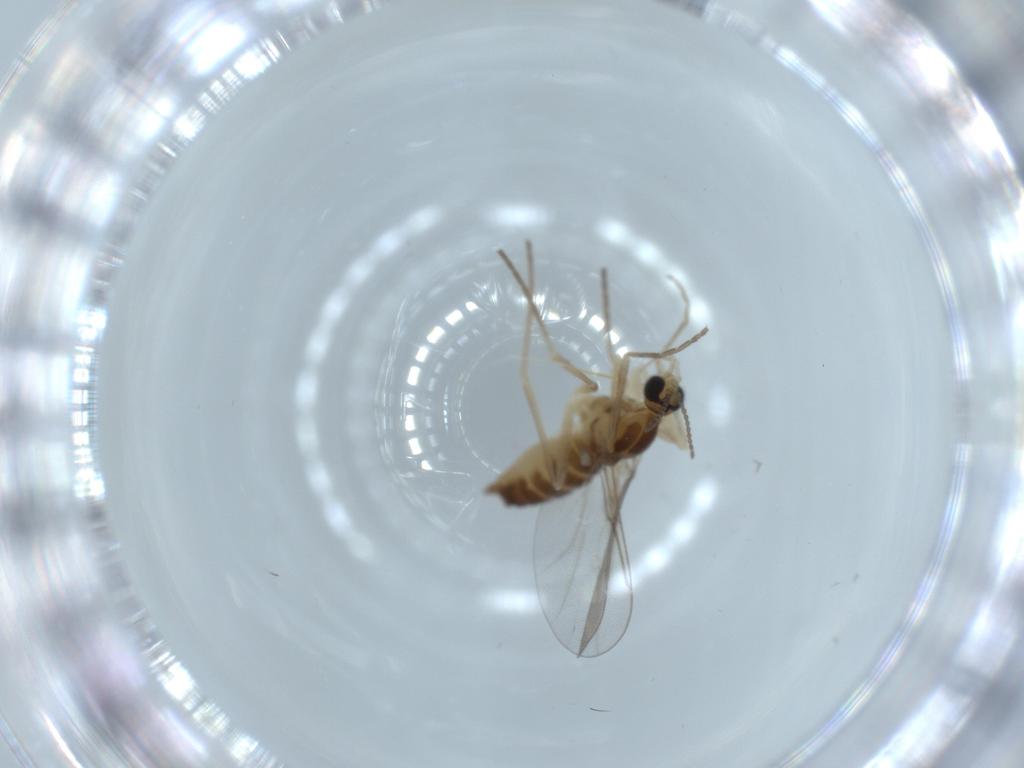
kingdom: Animalia
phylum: Arthropoda
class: Insecta
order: Diptera
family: Cecidomyiidae
